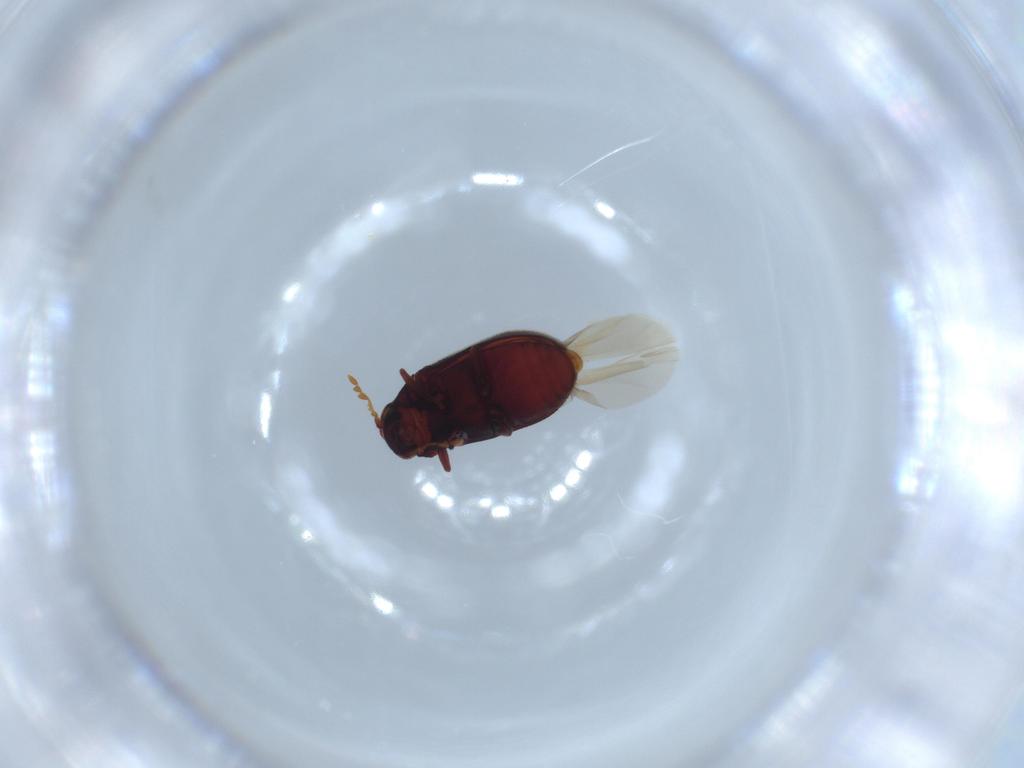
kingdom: Animalia
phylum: Arthropoda
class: Insecta
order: Coleoptera
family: Anobiidae
